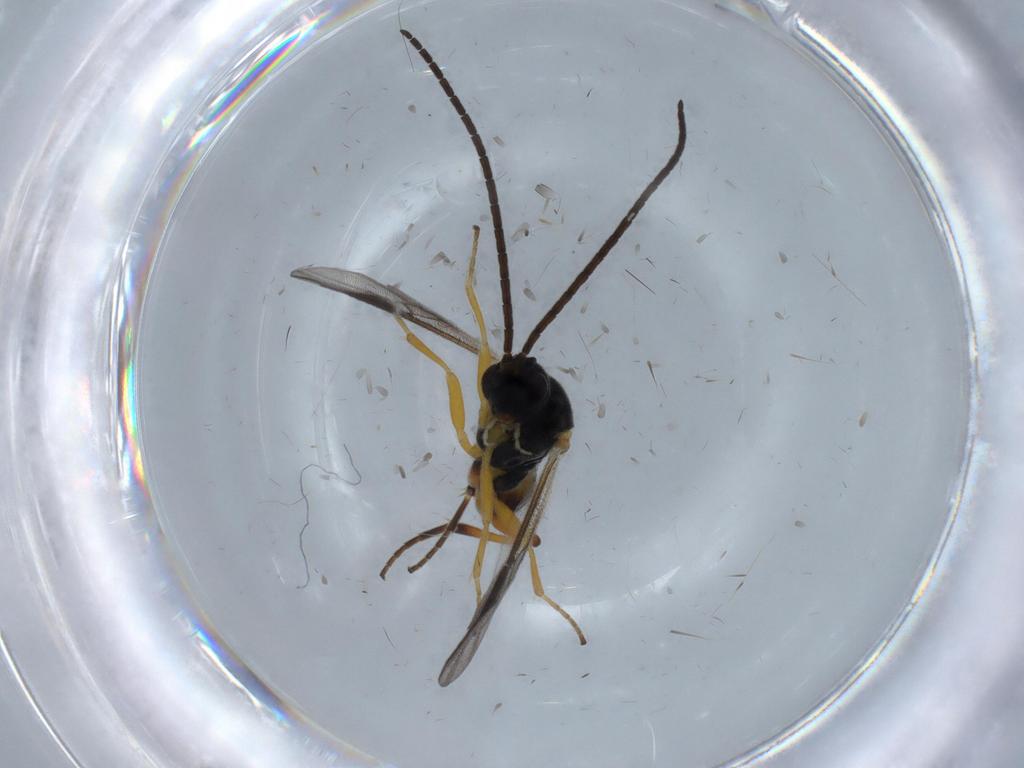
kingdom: Animalia
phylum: Arthropoda
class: Insecta
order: Hymenoptera
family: Braconidae
